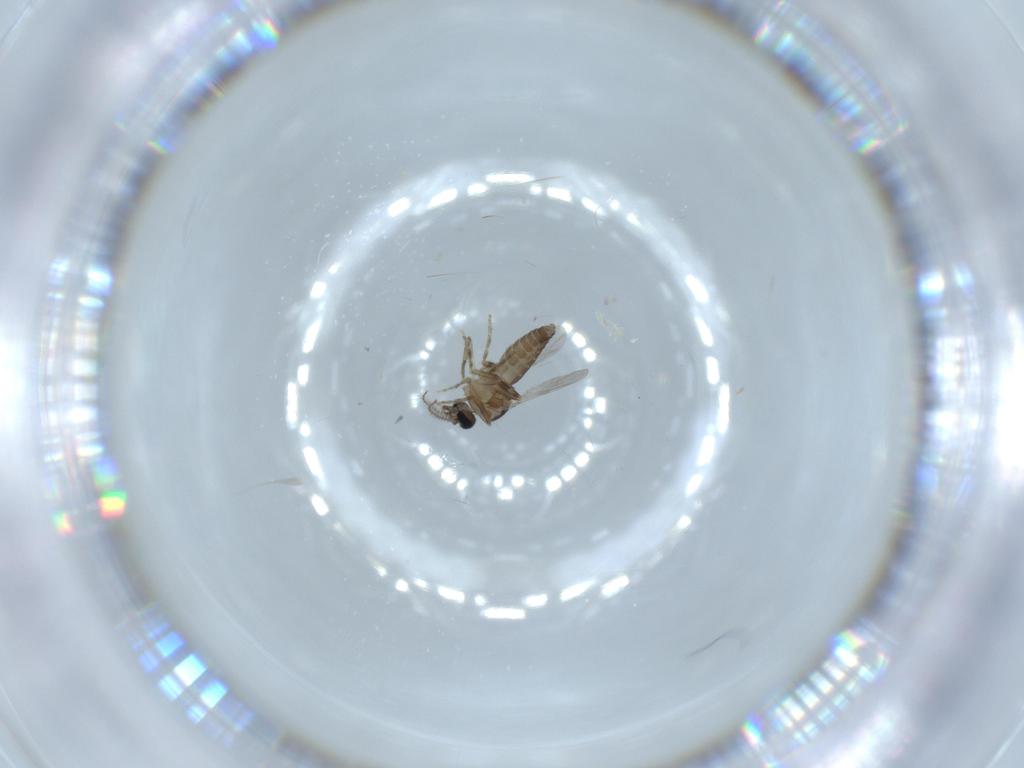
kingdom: Animalia
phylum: Arthropoda
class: Insecta
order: Diptera
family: Ceratopogonidae
